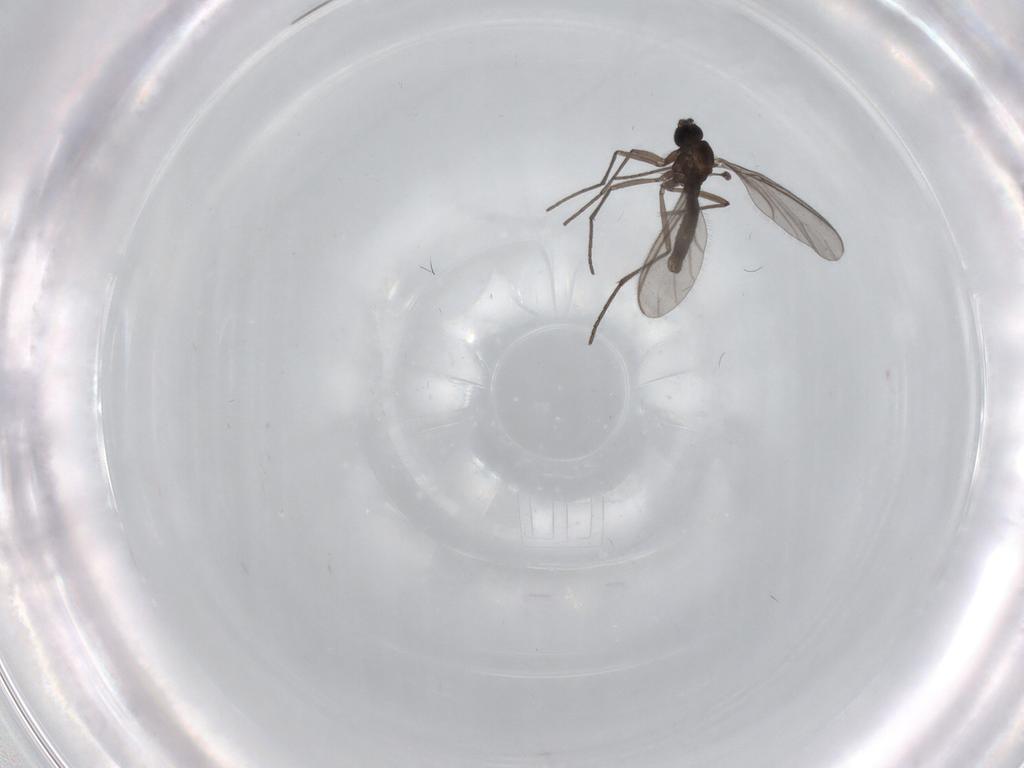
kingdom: Animalia
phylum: Arthropoda
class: Insecta
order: Diptera
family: Sciaridae
